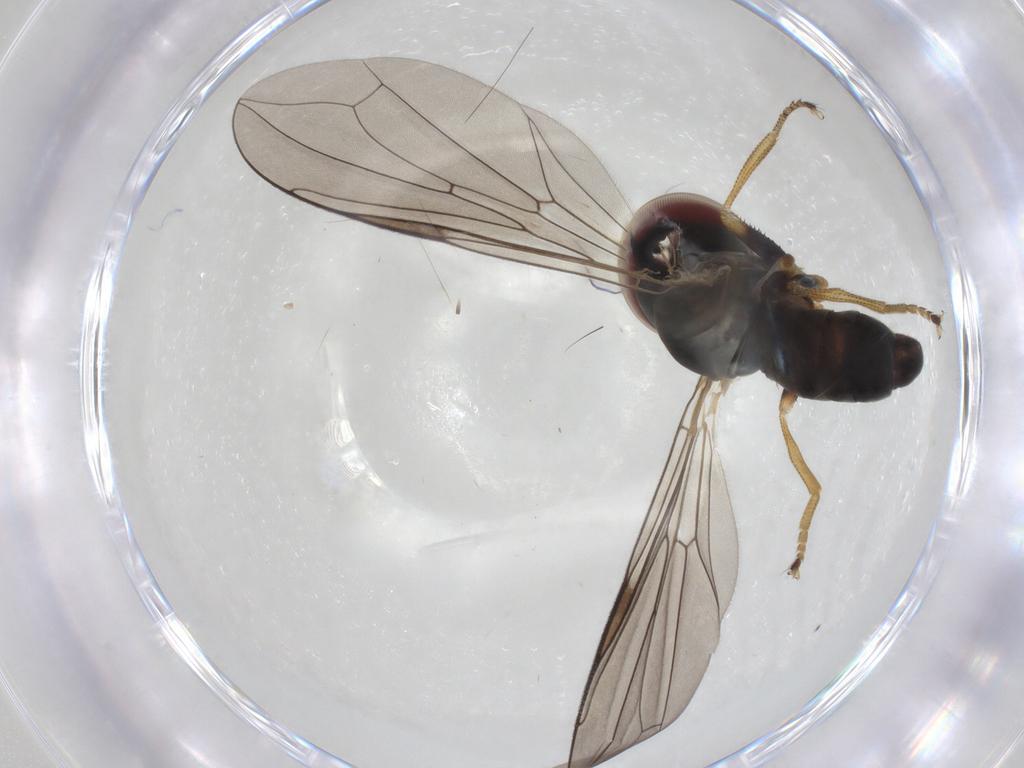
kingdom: Animalia
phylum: Arthropoda
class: Insecta
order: Diptera
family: Pipunculidae
